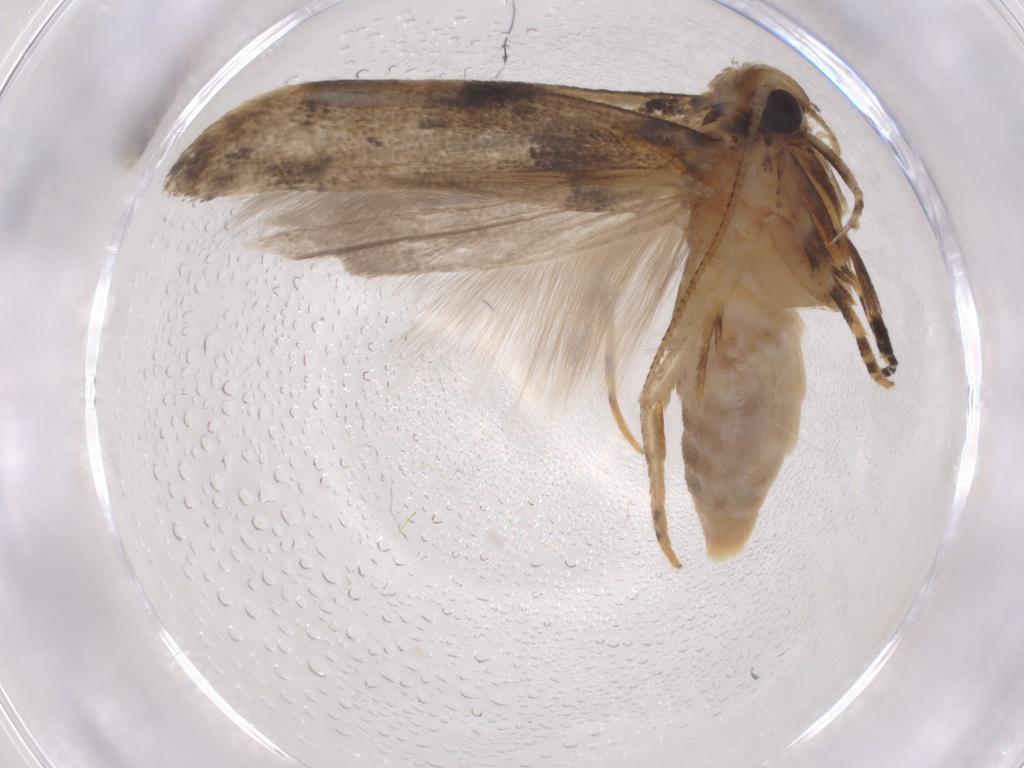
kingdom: Animalia
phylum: Arthropoda
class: Insecta
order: Lepidoptera
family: Gelechiidae
